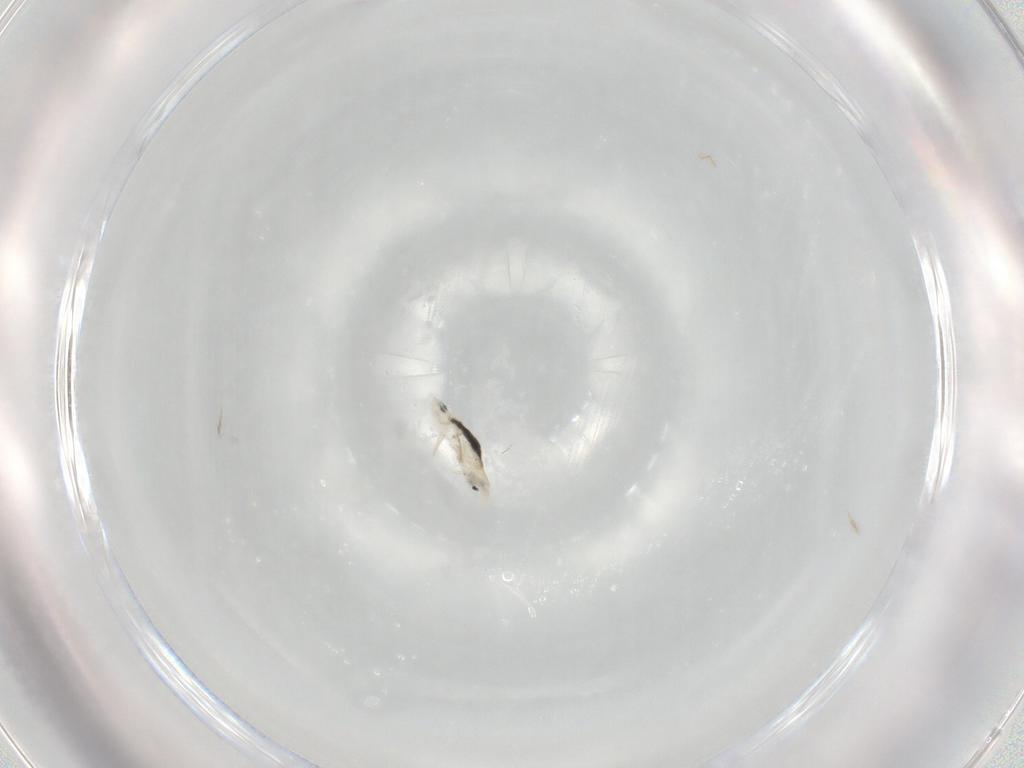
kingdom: Animalia
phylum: Arthropoda
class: Collembola
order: Entomobryomorpha
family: Entomobryidae
